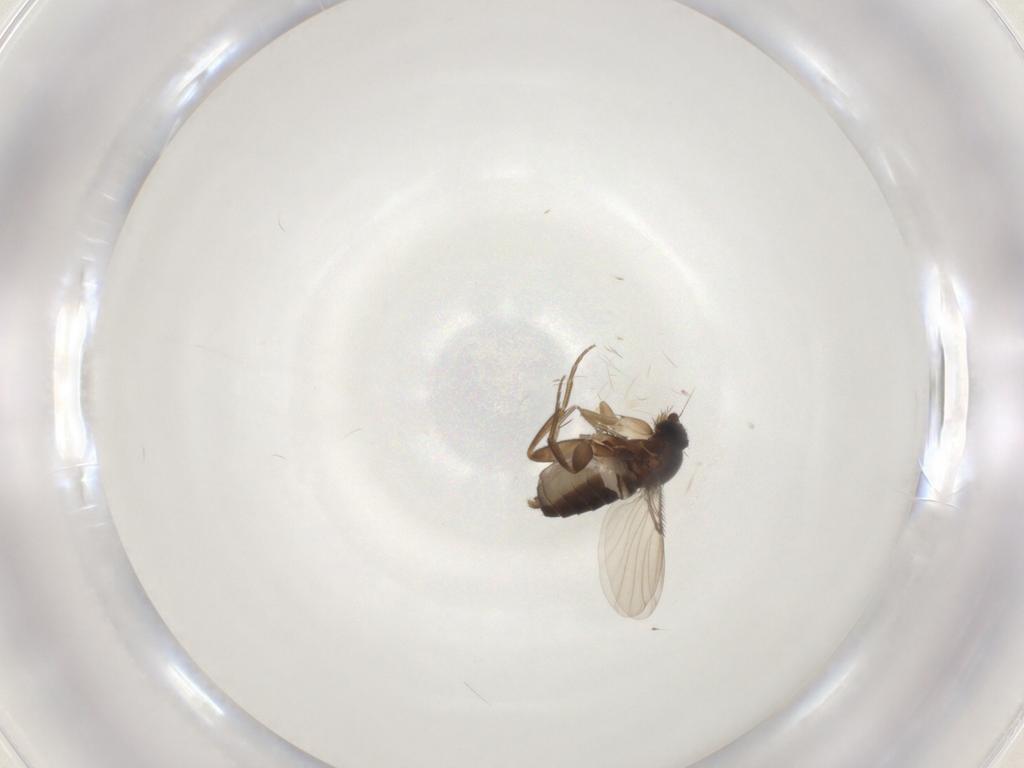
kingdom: Animalia
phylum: Arthropoda
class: Insecta
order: Diptera
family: Phoridae
